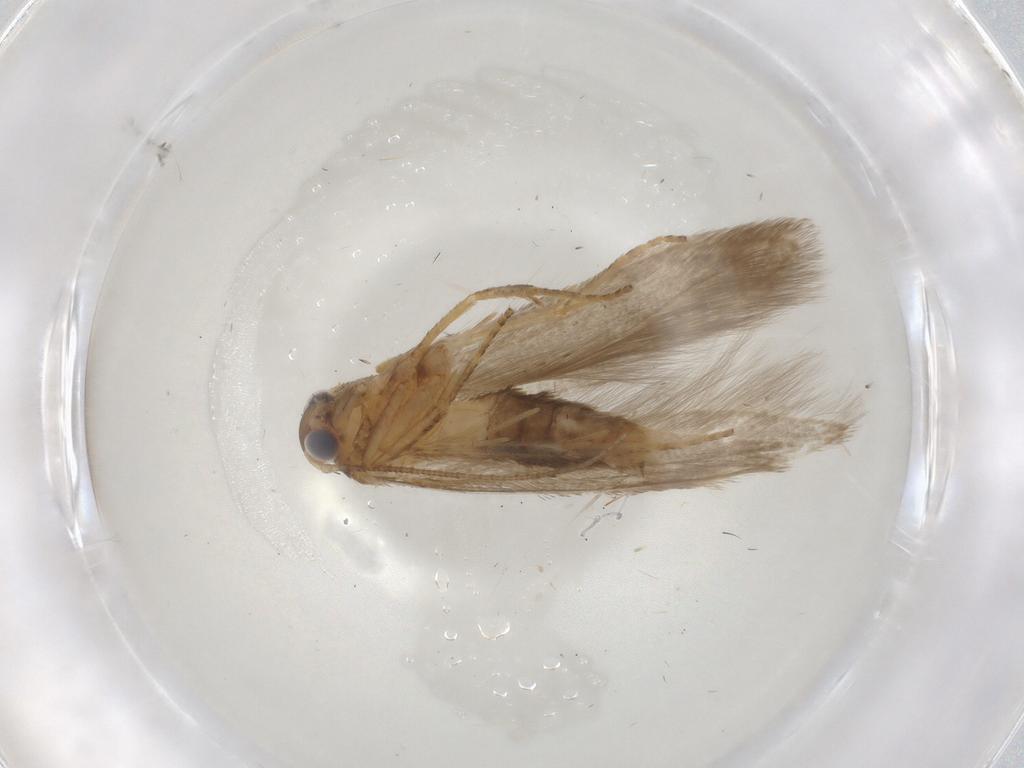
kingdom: Animalia
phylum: Arthropoda
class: Insecta
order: Lepidoptera
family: Coleophoridae
